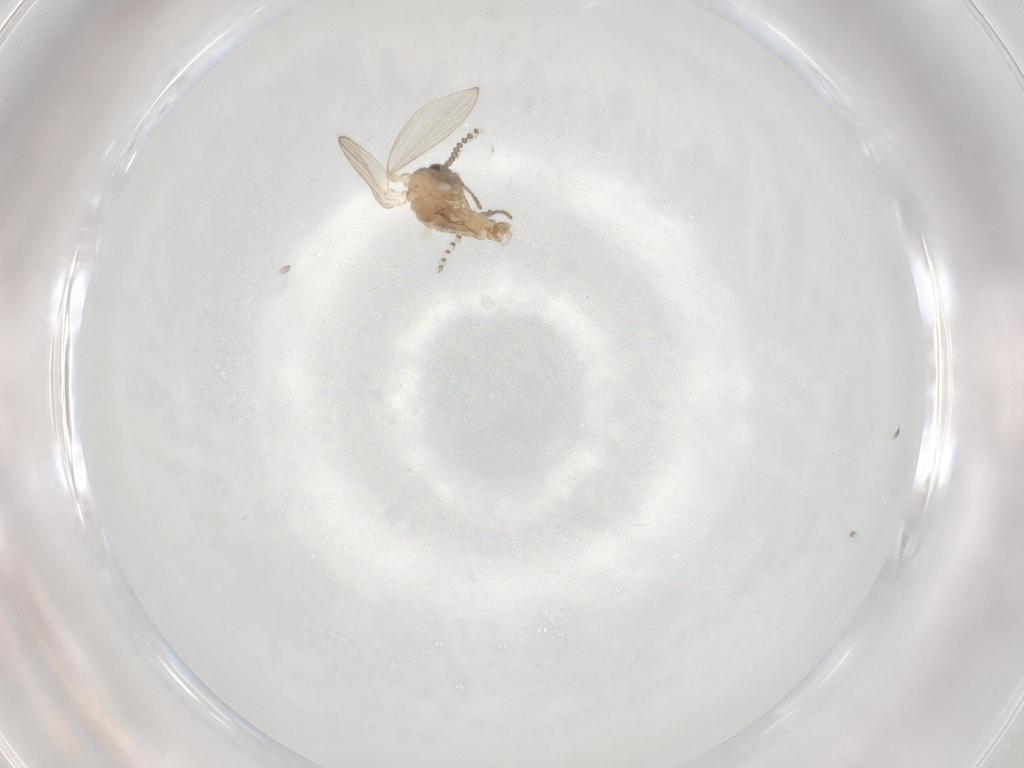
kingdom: Animalia
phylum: Arthropoda
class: Insecta
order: Diptera
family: Psychodidae
